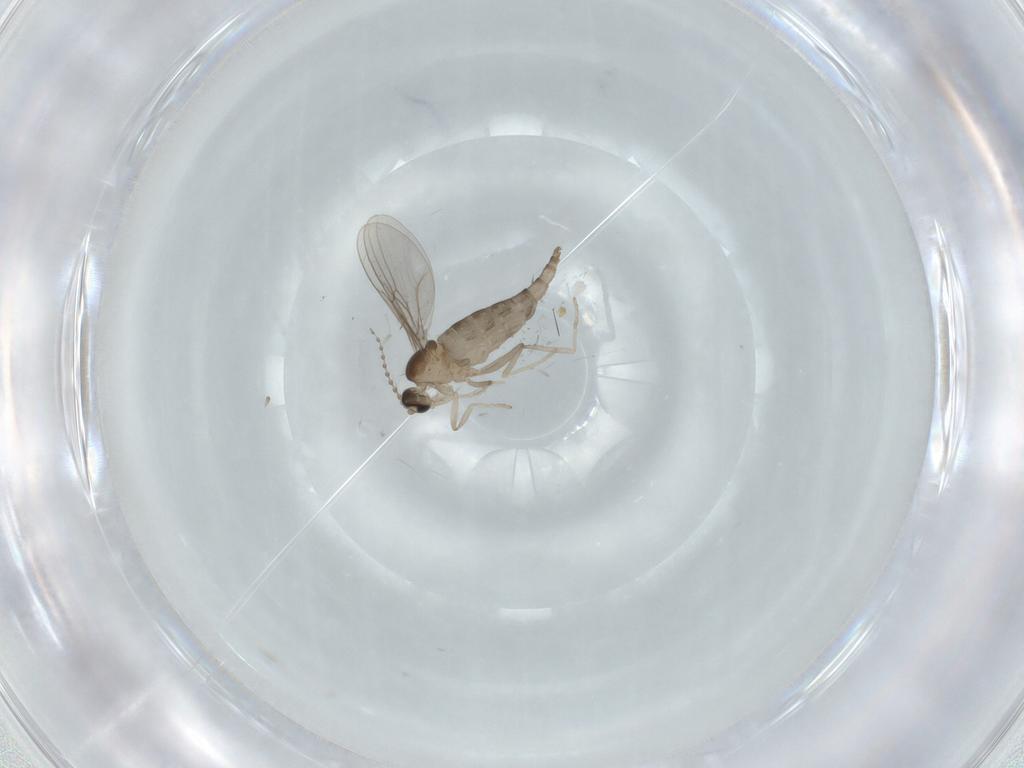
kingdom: Animalia
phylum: Arthropoda
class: Insecta
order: Diptera
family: Cecidomyiidae
